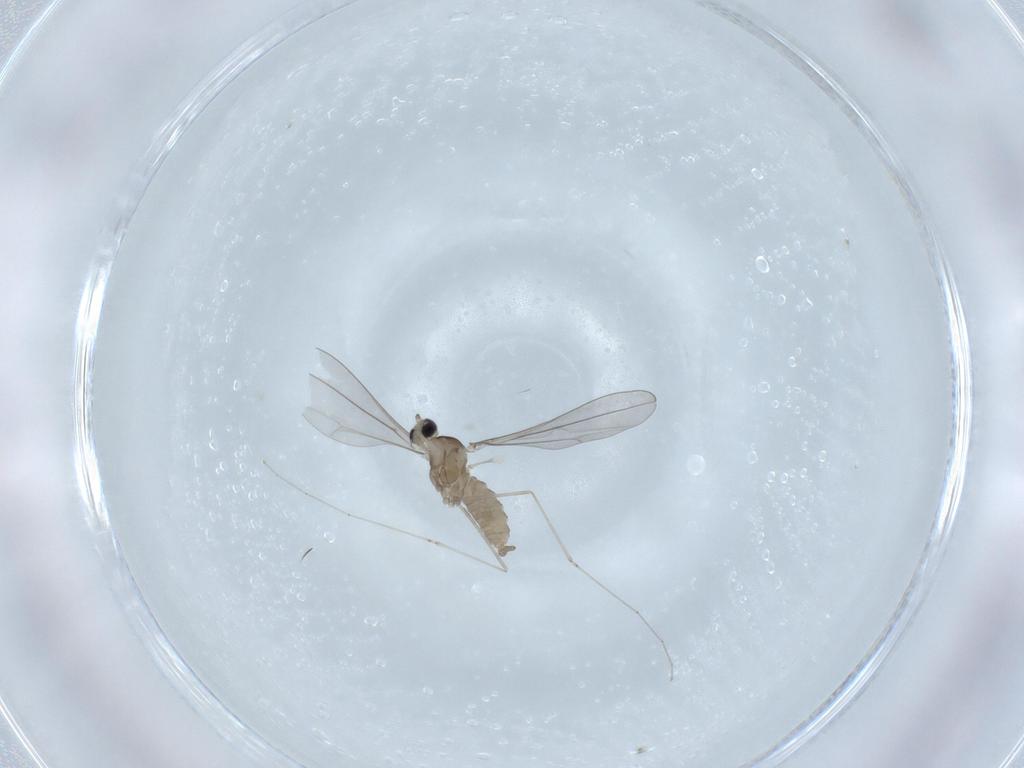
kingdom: Animalia
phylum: Arthropoda
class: Insecta
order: Diptera
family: Cecidomyiidae
